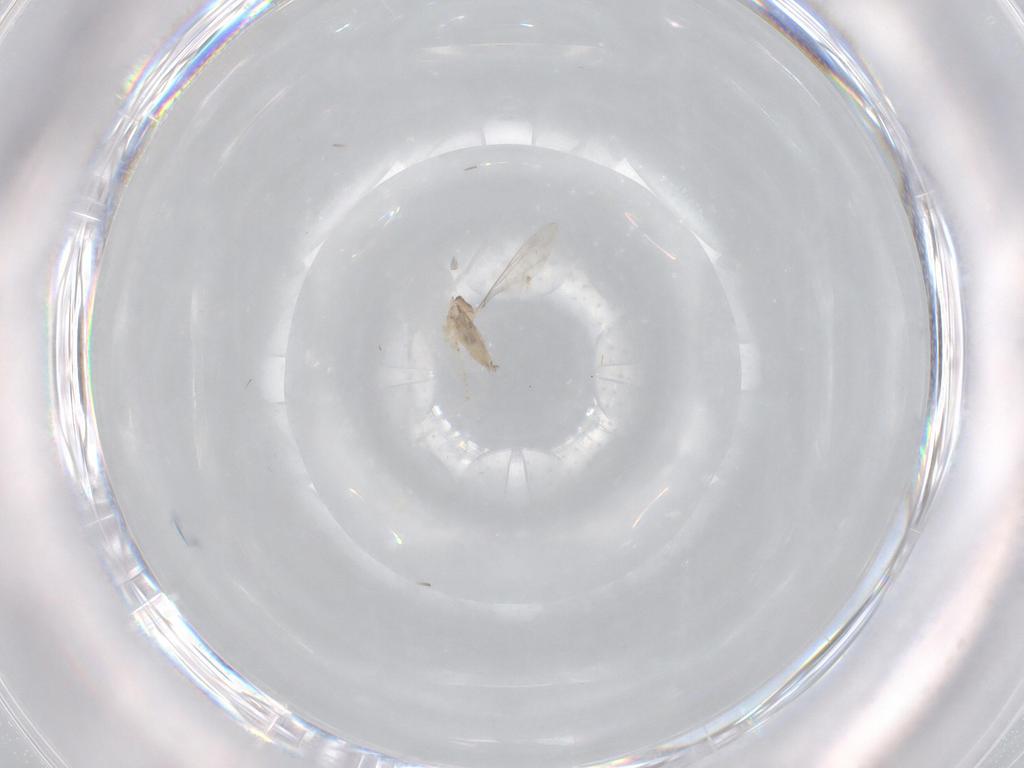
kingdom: Animalia
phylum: Arthropoda
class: Insecta
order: Diptera
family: Cecidomyiidae
